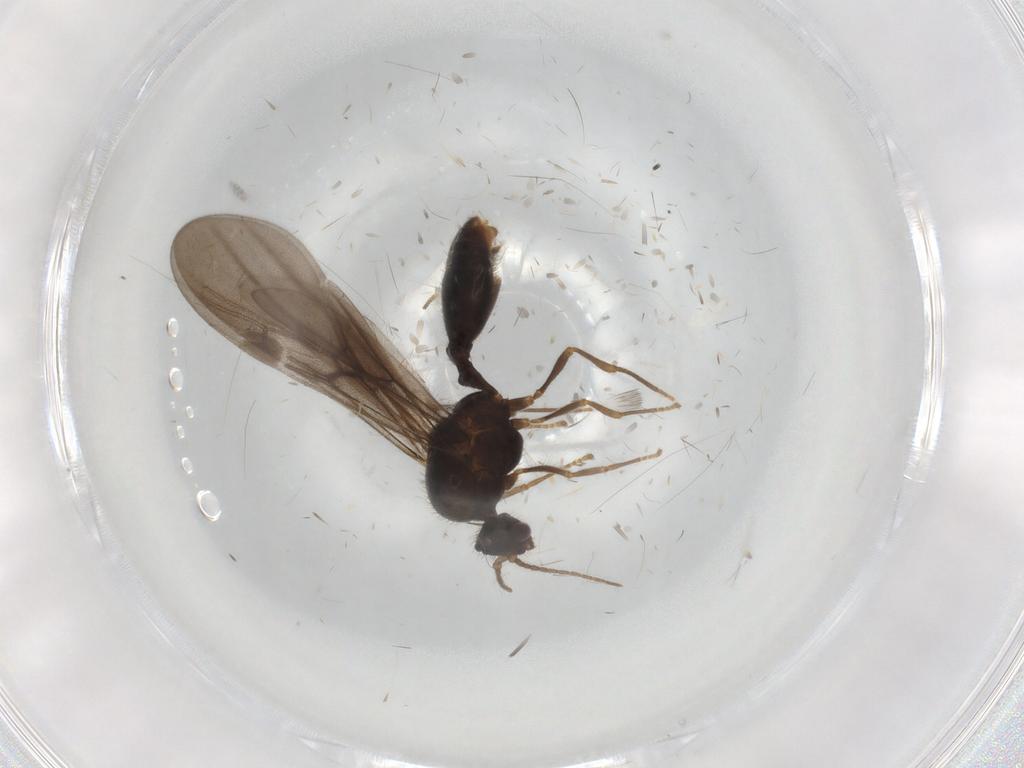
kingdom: Animalia
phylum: Arthropoda
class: Insecta
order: Hymenoptera
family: Formicidae
